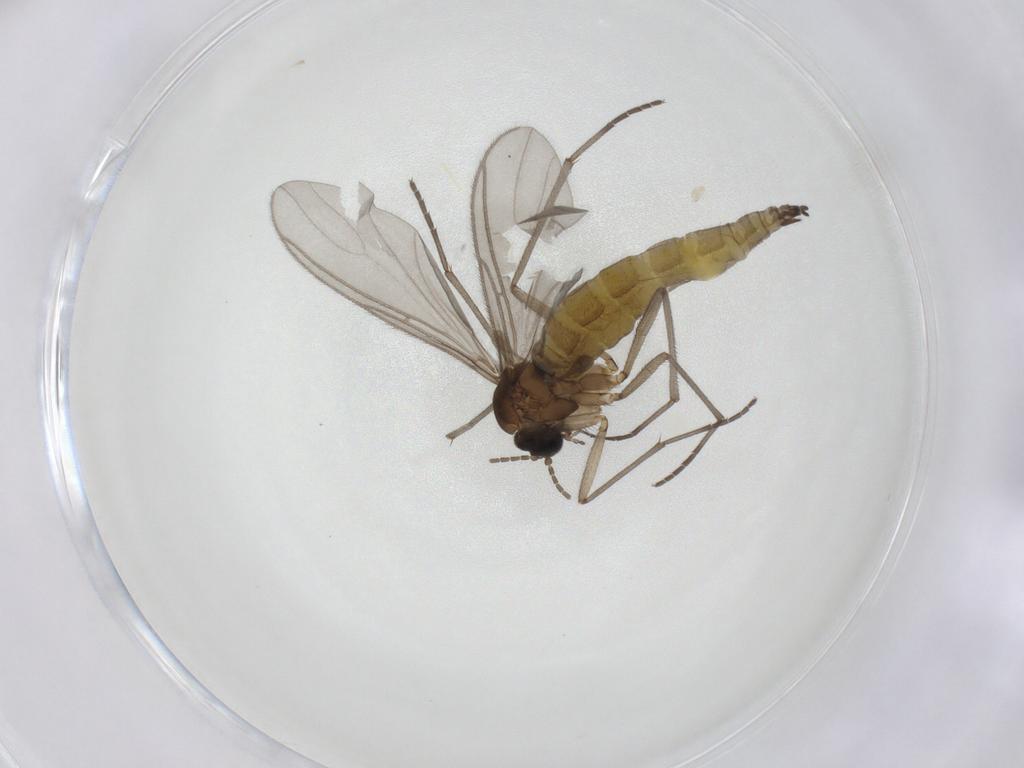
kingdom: Animalia
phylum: Arthropoda
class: Insecta
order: Diptera
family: Sciaridae
